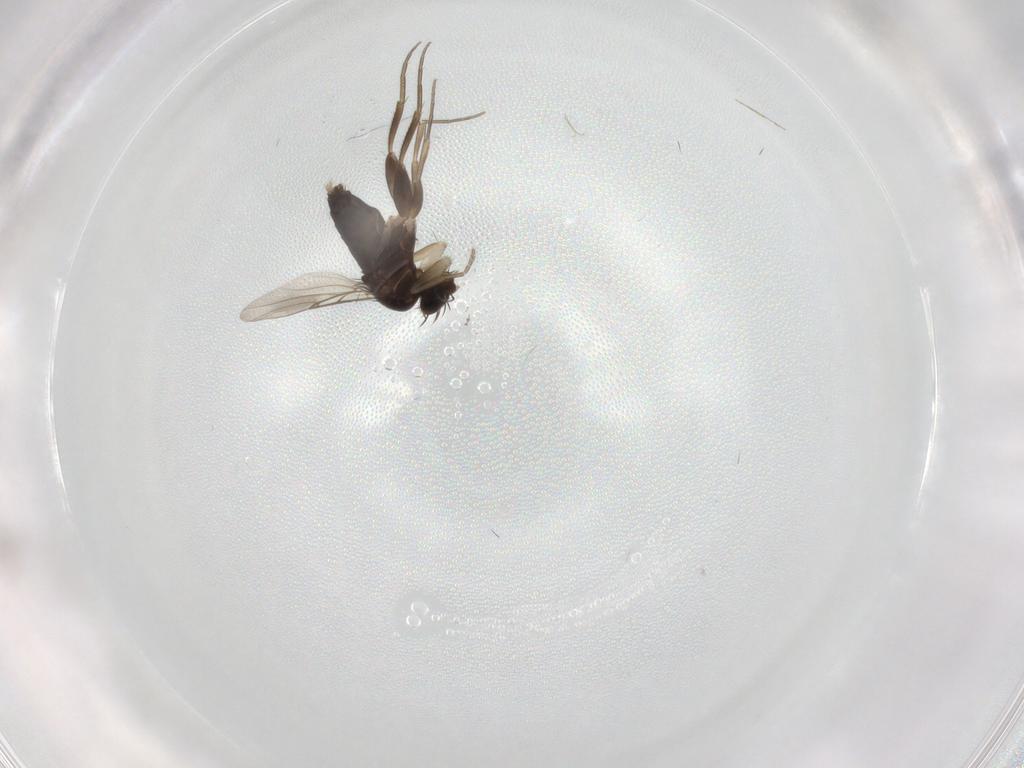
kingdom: Animalia
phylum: Arthropoda
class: Insecta
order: Diptera
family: Phoridae
